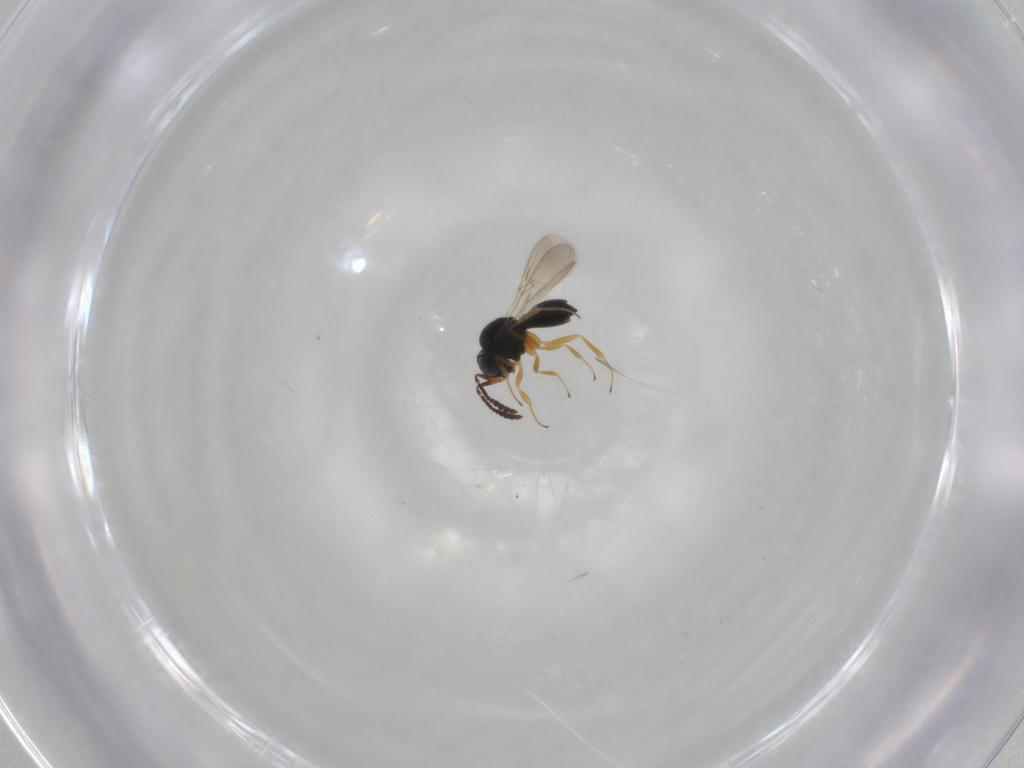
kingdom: Animalia
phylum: Arthropoda
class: Insecta
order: Hymenoptera
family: Scelionidae
